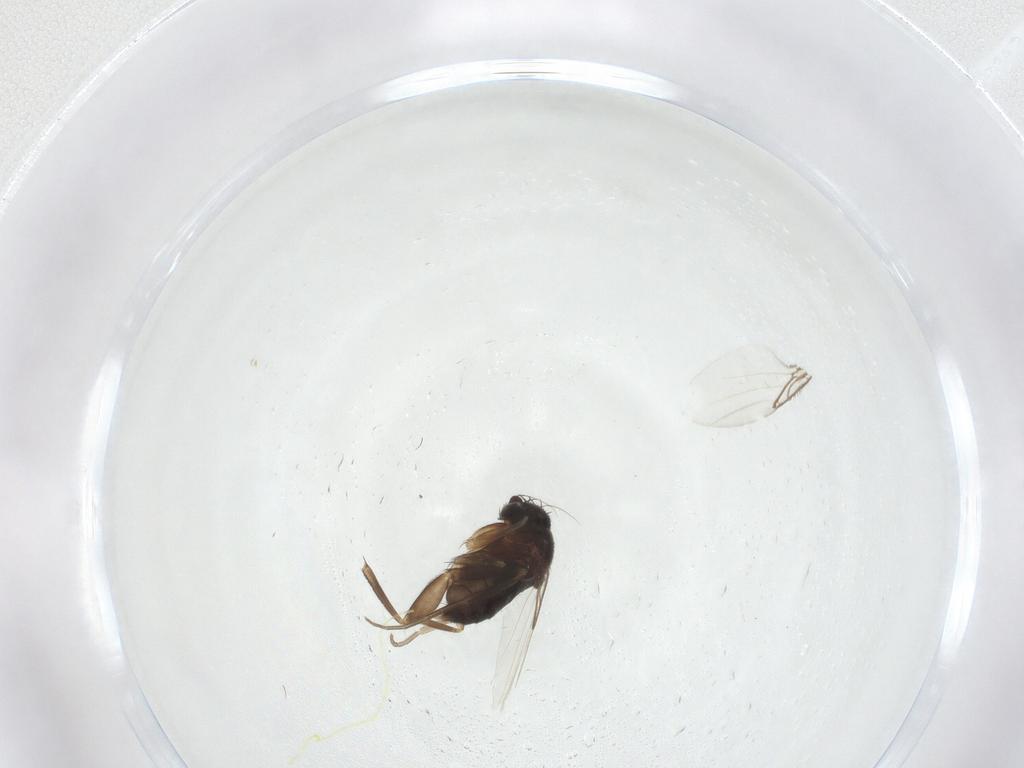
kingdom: Animalia
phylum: Arthropoda
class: Insecta
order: Diptera
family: Phoridae
